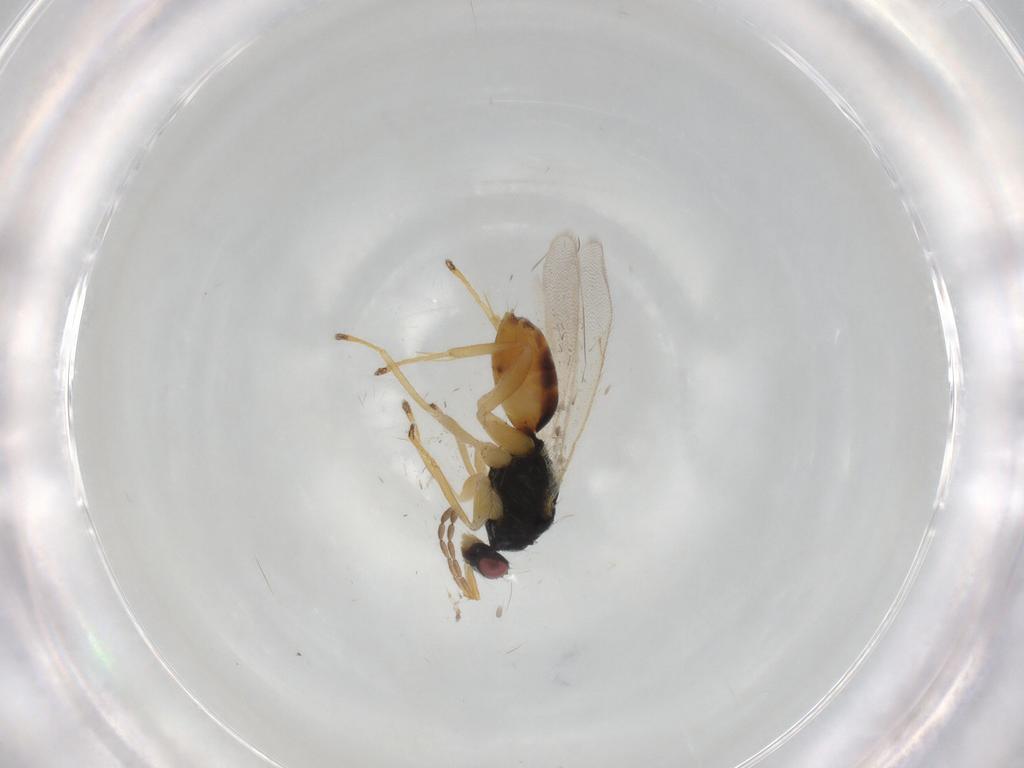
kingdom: Animalia
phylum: Arthropoda
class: Insecta
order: Hymenoptera
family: Eulophidae
